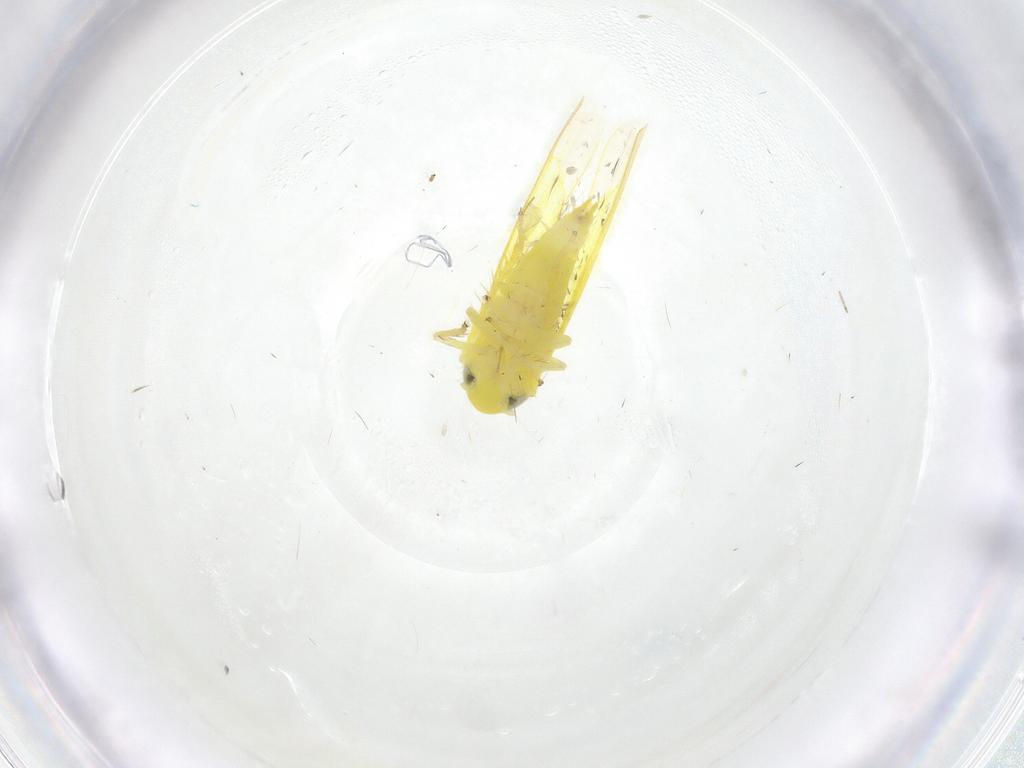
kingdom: Animalia
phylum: Arthropoda
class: Insecta
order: Hemiptera
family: Cicadellidae
